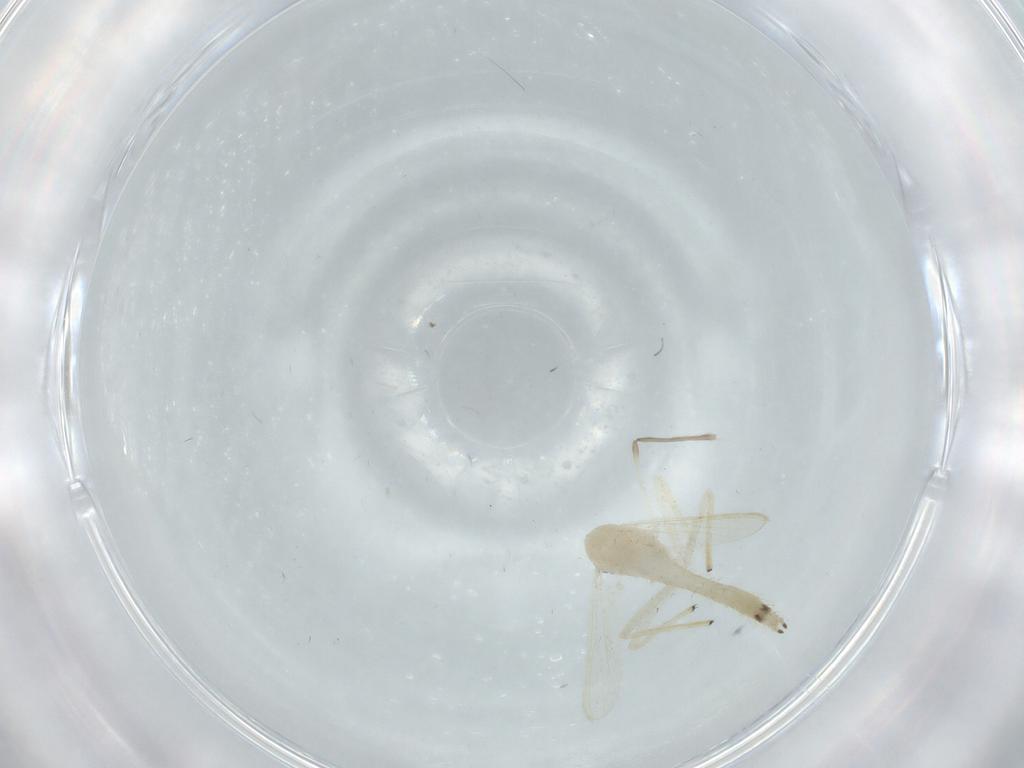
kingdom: Animalia
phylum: Arthropoda
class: Insecta
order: Diptera
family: Chironomidae
